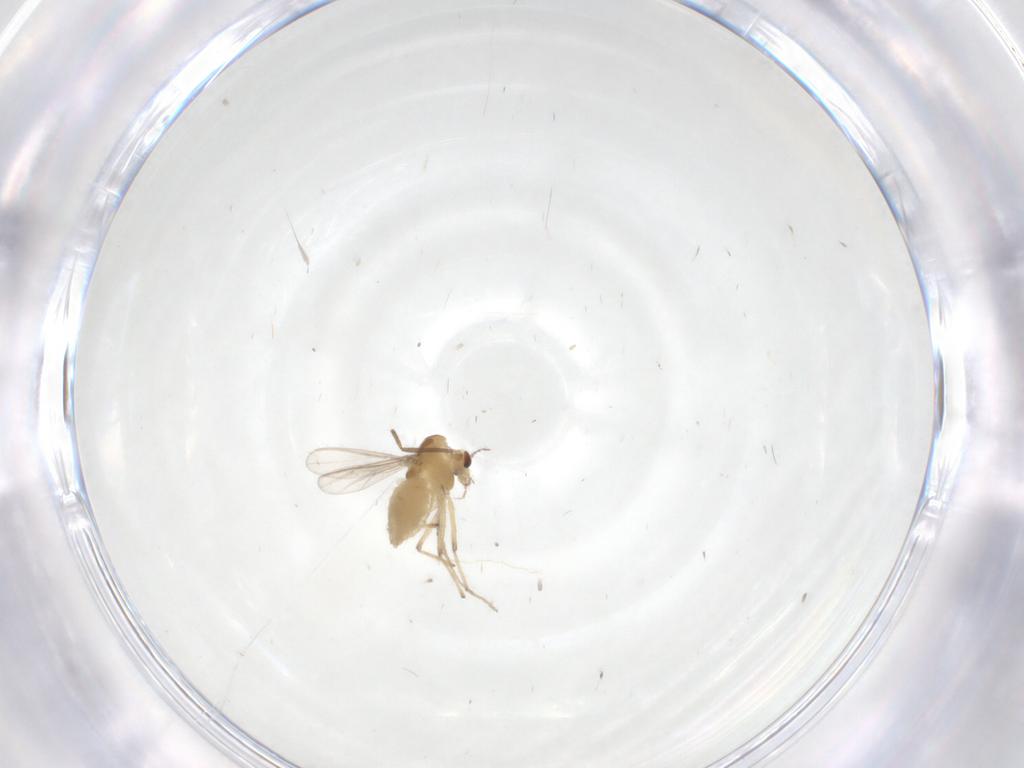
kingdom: Animalia
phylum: Arthropoda
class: Insecta
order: Diptera
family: Chironomidae
